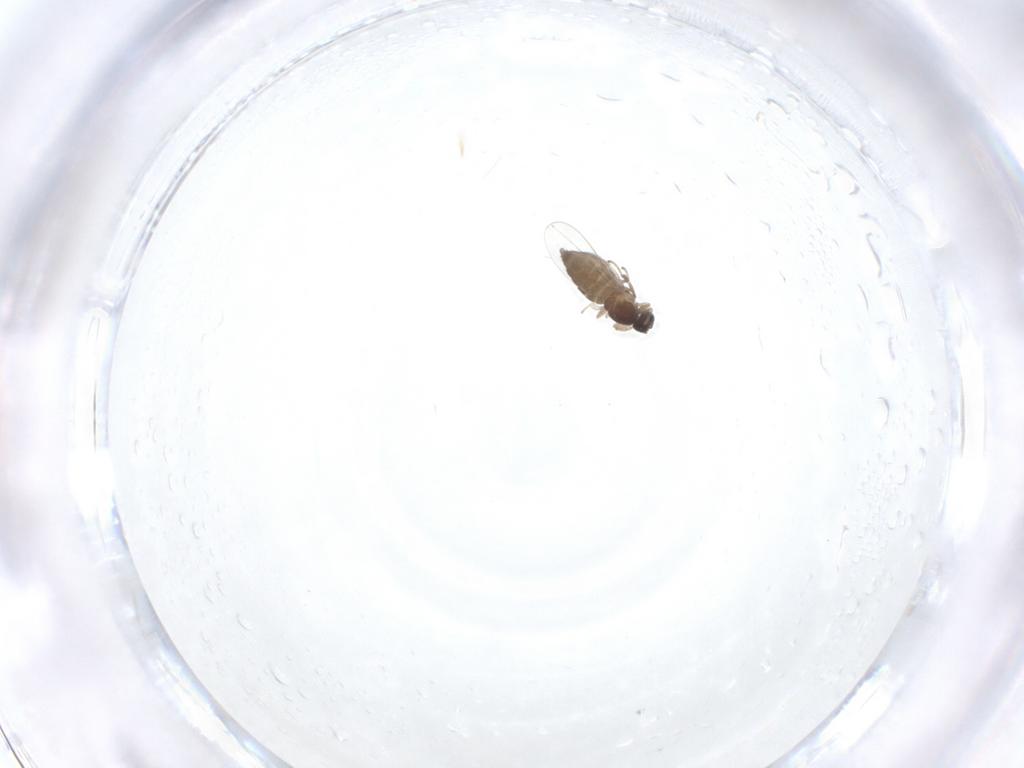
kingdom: Animalia
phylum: Arthropoda
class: Insecta
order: Diptera
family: Cecidomyiidae
